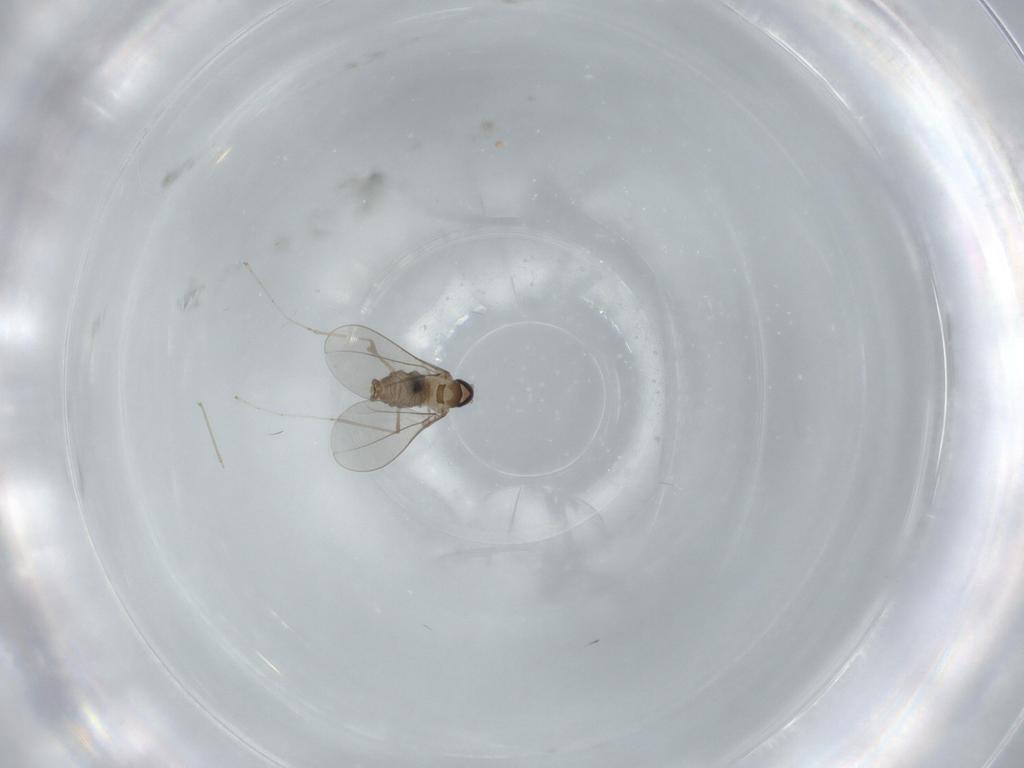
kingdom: Animalia
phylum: Arthropoda
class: Insecta
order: Diptera
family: Cecidomyiidae
